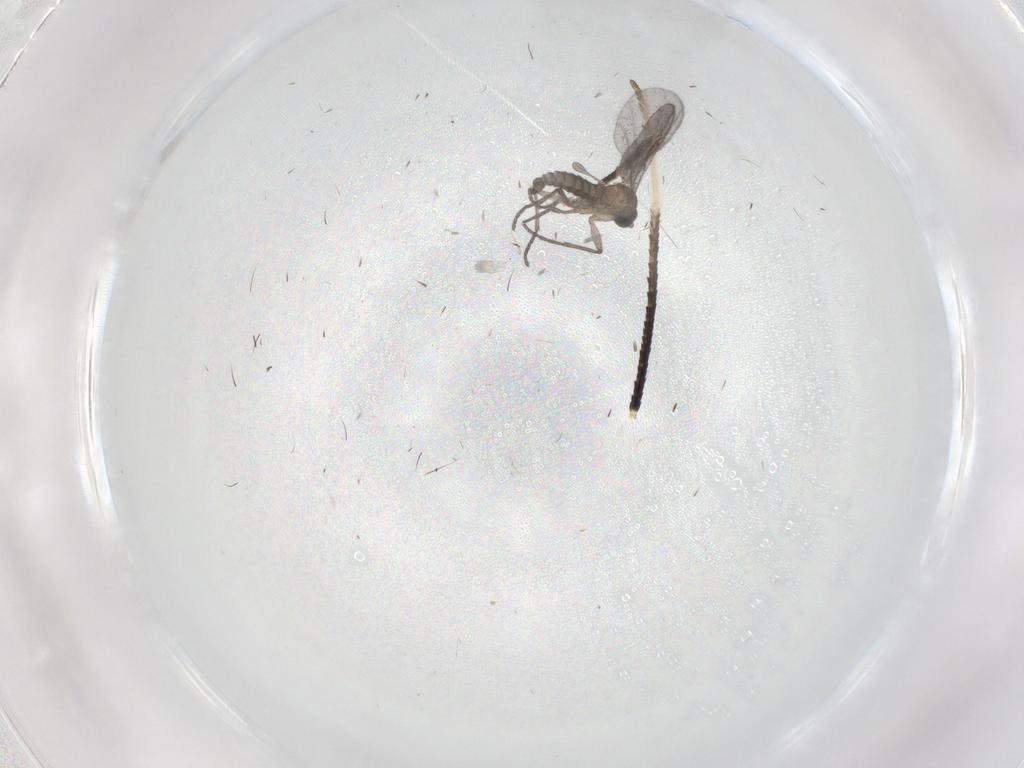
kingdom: Animalia
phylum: Arthropoda
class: Insecta
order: Diptera
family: Sciaridae
